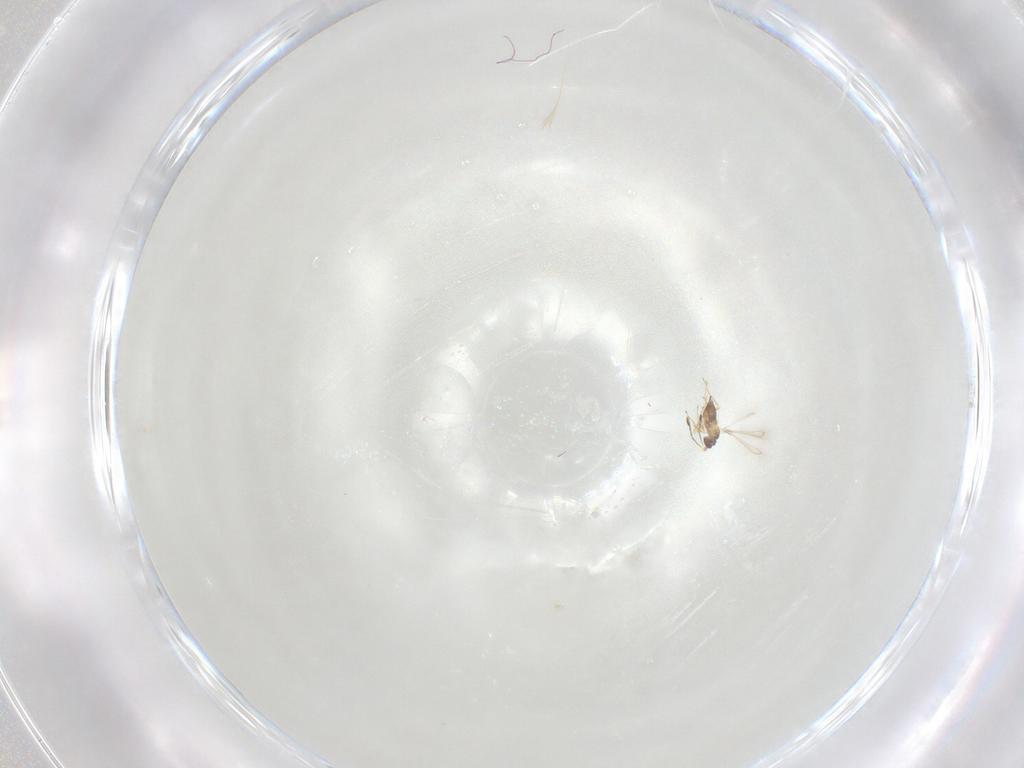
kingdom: Animalia
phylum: Arthropoda
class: Insecta
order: Hymenoptera
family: Mymaridae
